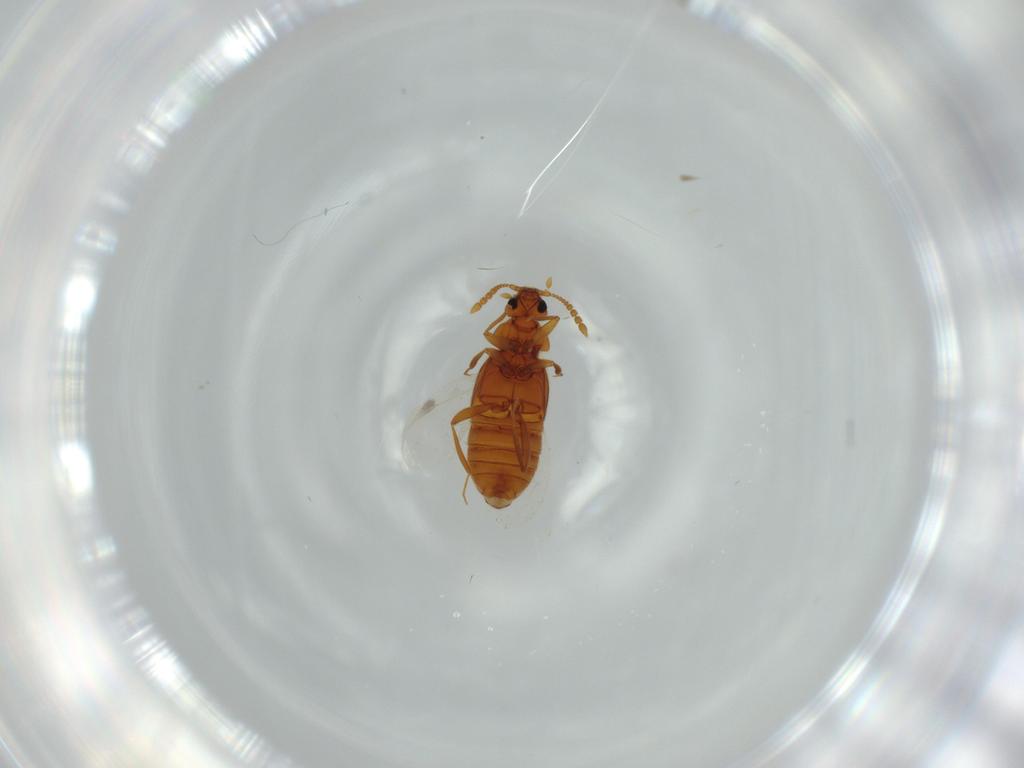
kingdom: Animalia
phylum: Arthropoda
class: Insecta
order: Coleoptera
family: Staphylinidae
